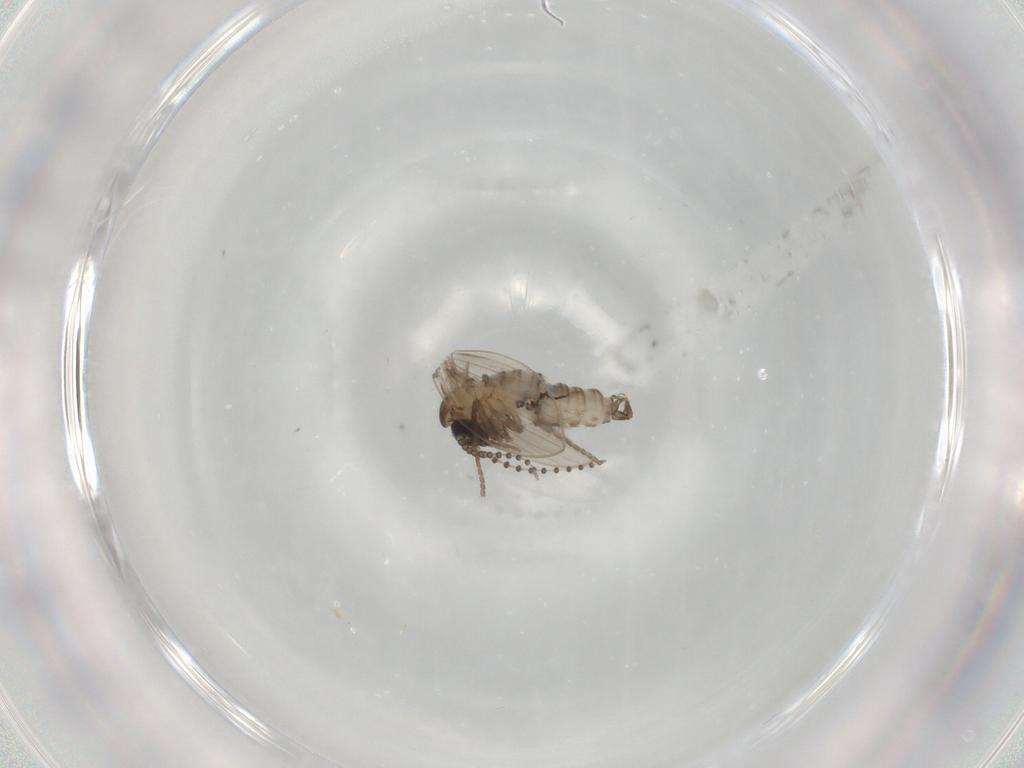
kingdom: Animalia
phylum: Arthropoda
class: Insecta
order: Diptera
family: Psychodidae
